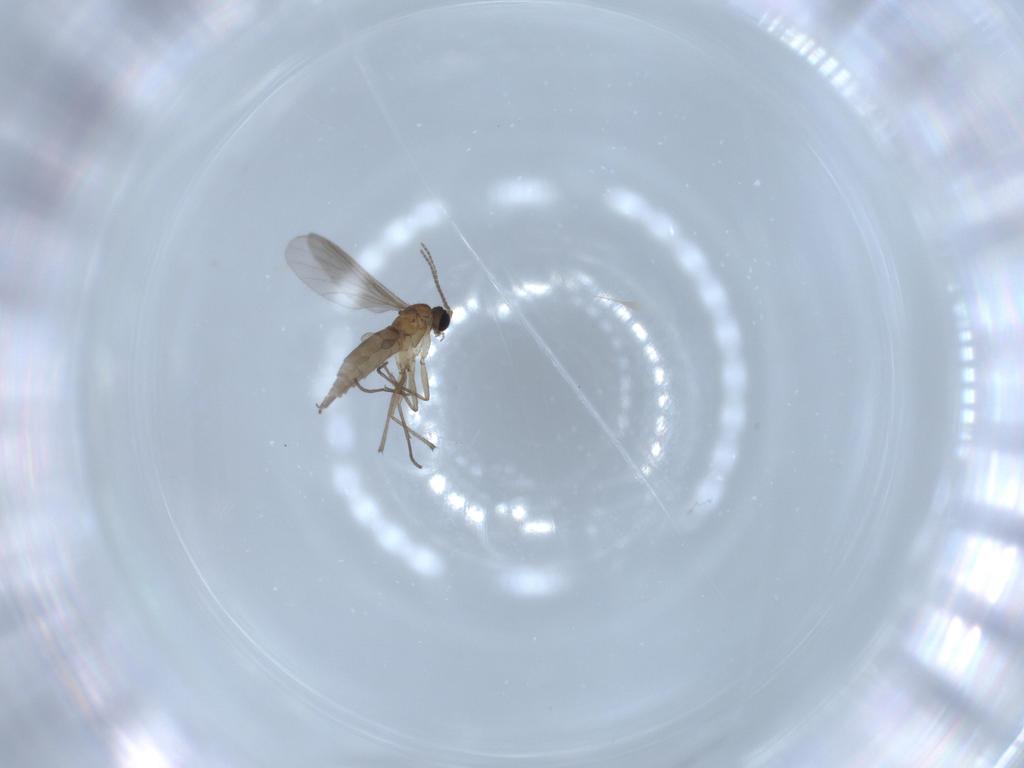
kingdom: Animalia
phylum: Arthropoda
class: Insecta
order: Diptera
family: Sciaridae
